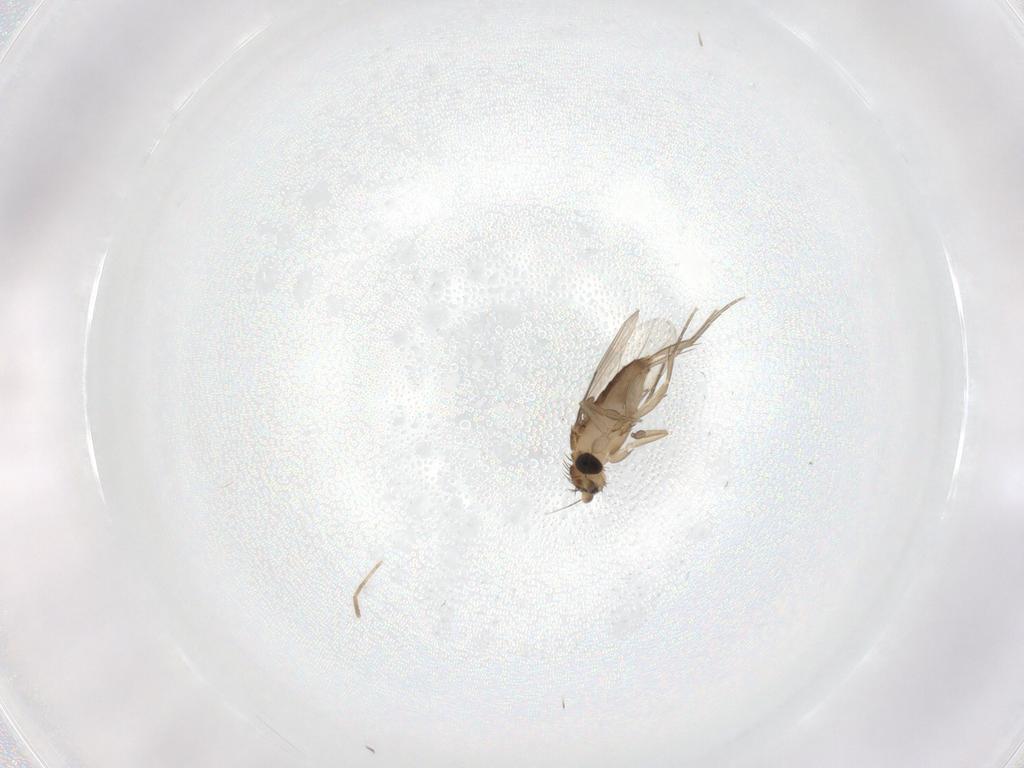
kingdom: Animalia
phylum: Arthropoda
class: Insecta
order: Diptera
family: Phoridae
